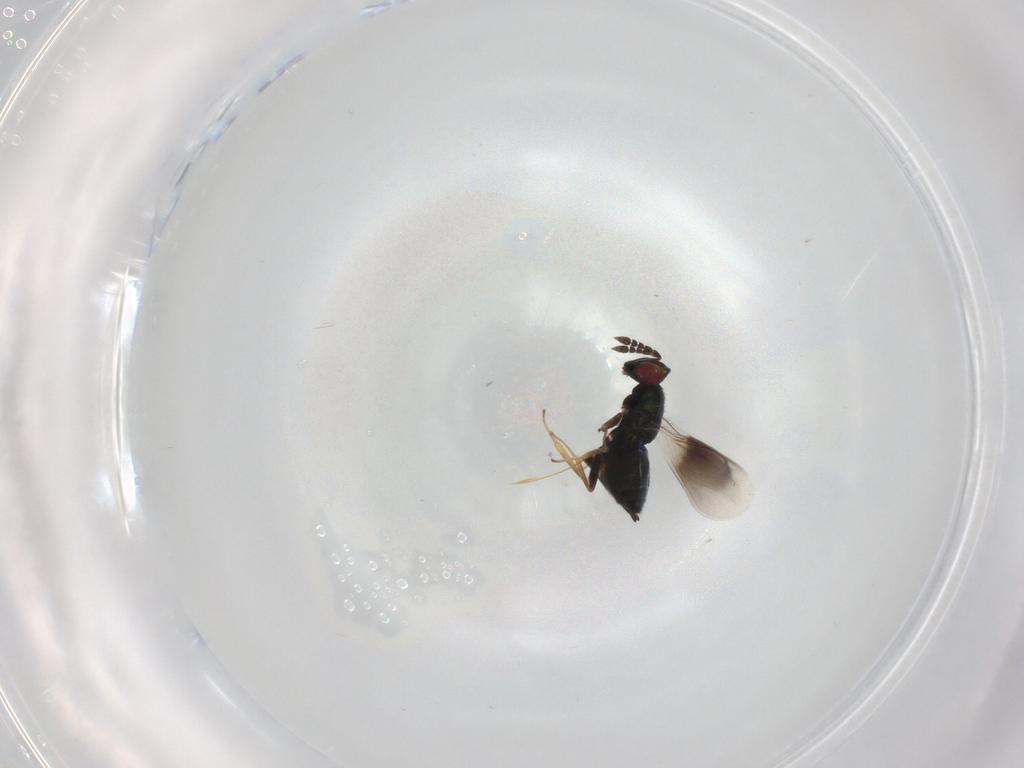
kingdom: Animalia
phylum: Arthropoda
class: Insecta
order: Hymenoptera
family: Eulophidae
